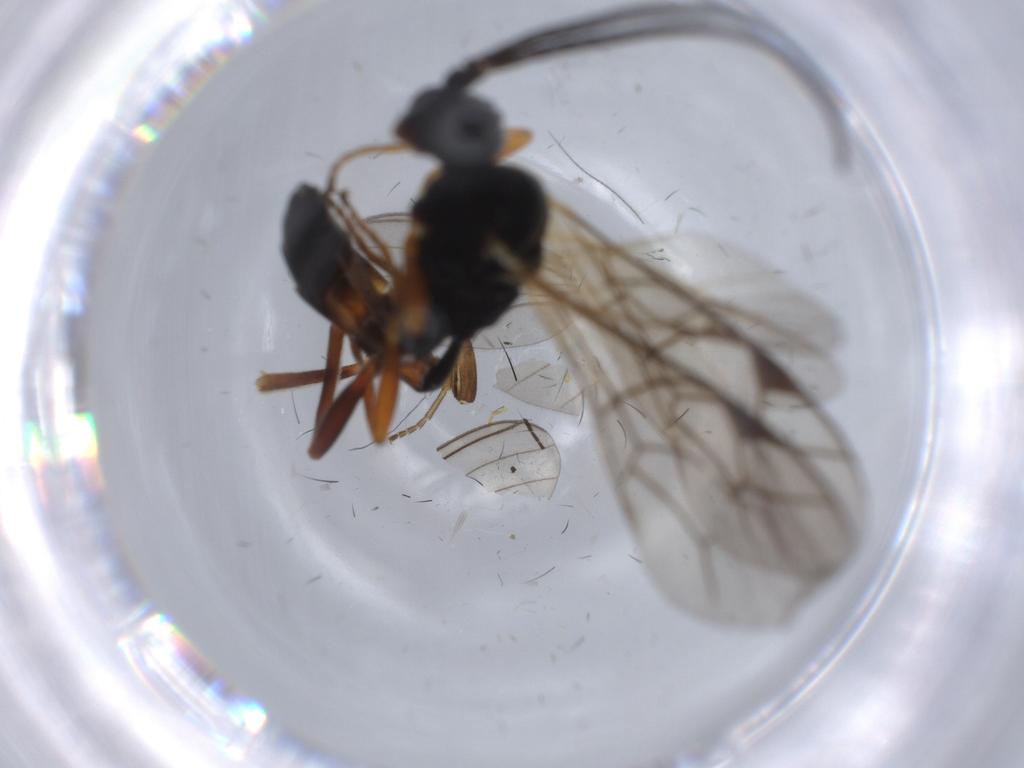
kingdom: Animalia
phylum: Arthropoda
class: Insecta
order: Hymenoptera
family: Ichneumonidae
